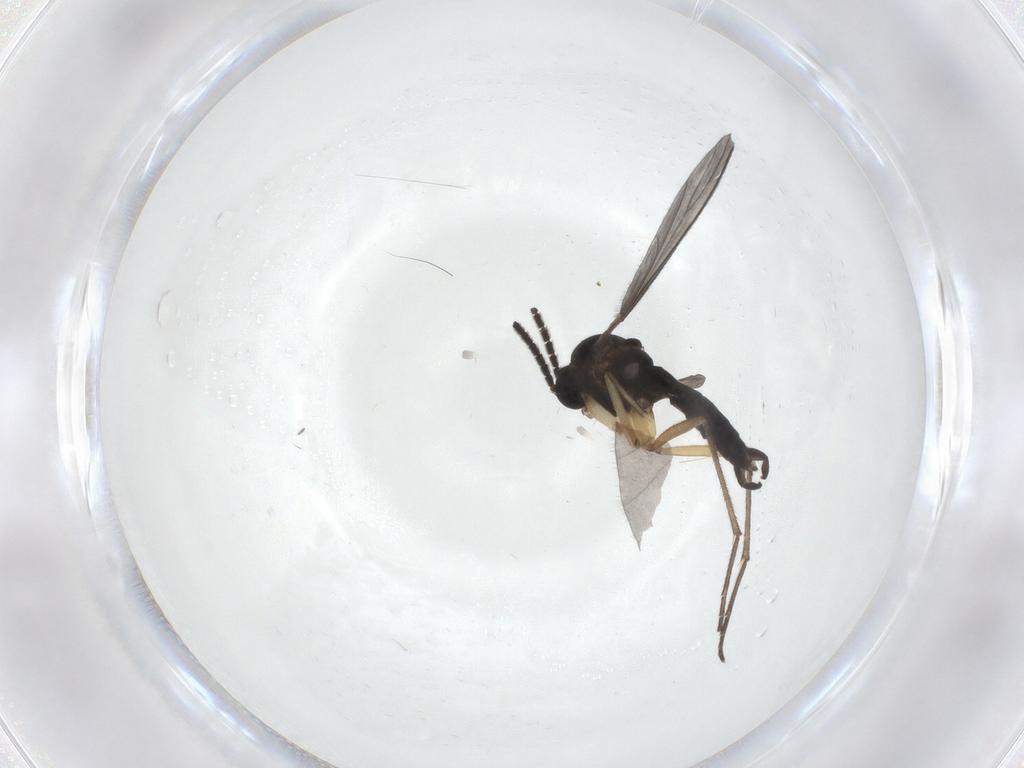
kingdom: Animalia
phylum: Arthropoda
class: Insecta
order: Diptera
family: Sciaridae
